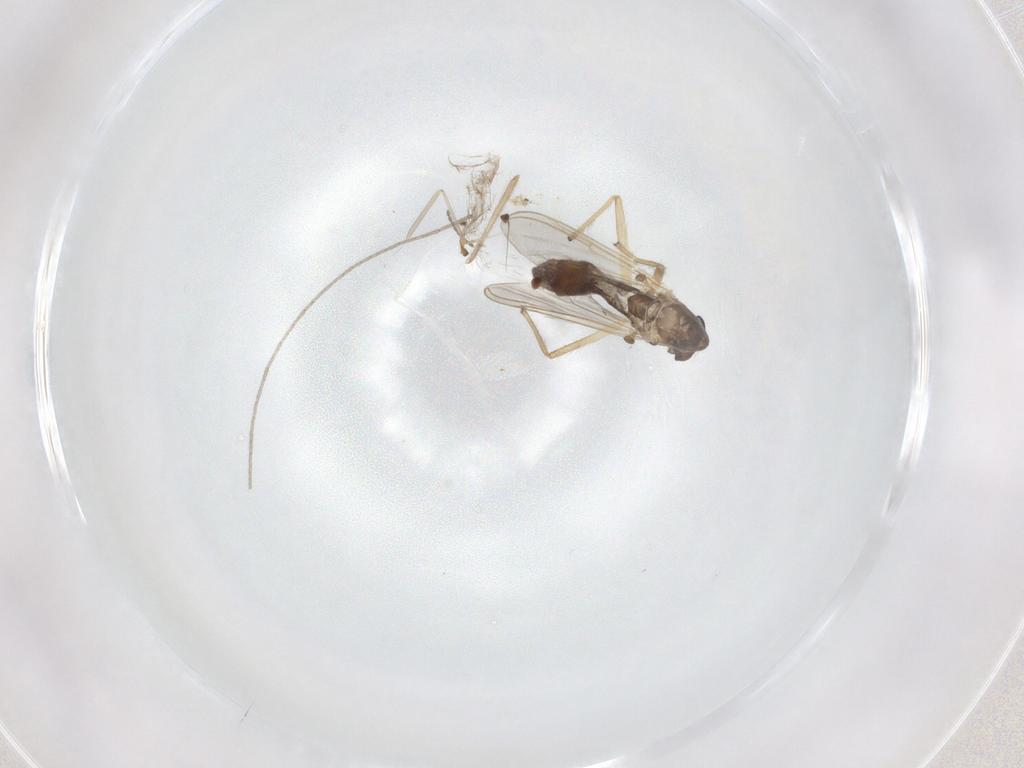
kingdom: Animalia
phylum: Arthropoda
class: Insecta
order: Diptera
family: Chironomidae
